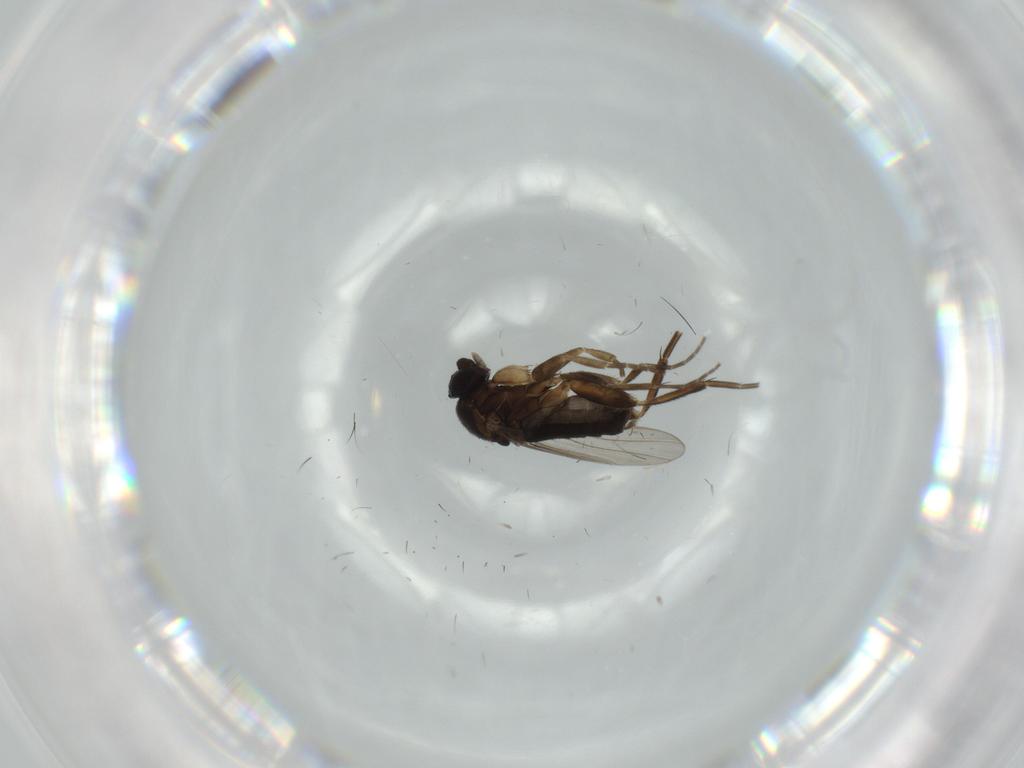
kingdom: Animalia
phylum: Arthropoda
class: Insecta
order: Diptera
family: Phoridae
